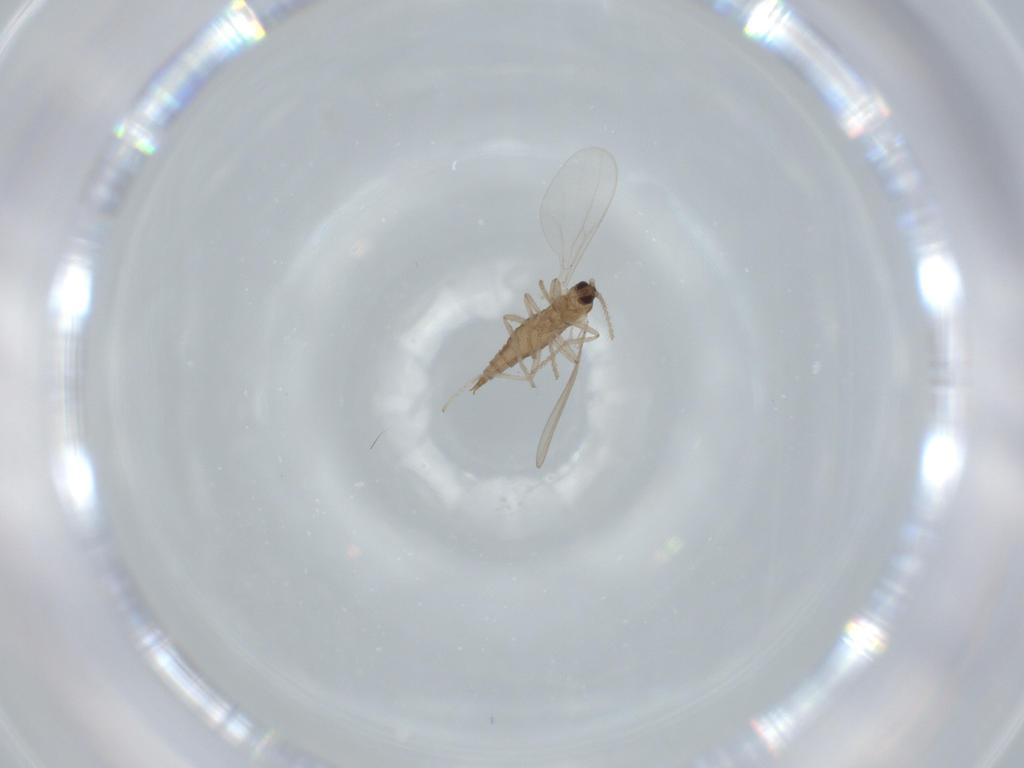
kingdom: Animalia
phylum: Arthropoda
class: Insecta
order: Diptera
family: Cecidomyiidae
